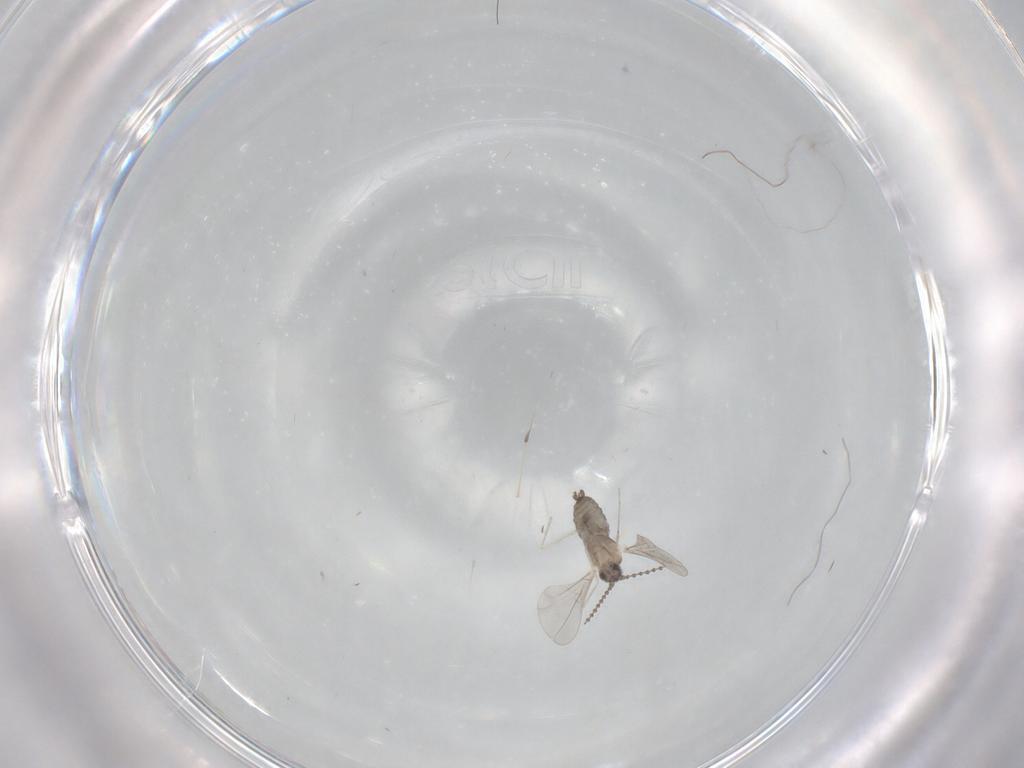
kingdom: Animalia
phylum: Arthropoda
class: Insecta
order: Diptera
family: Cecidomyiidae
